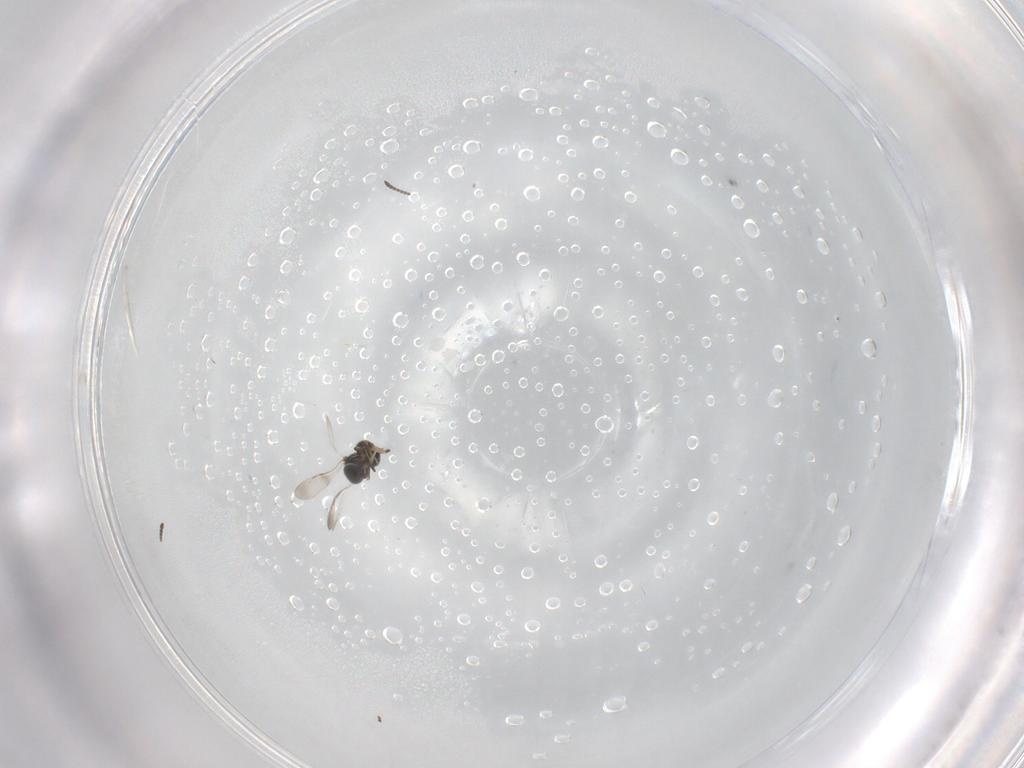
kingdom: Animalia
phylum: Arthropoda
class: Insecta
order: Hymenoptera
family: Ceraphronidae
